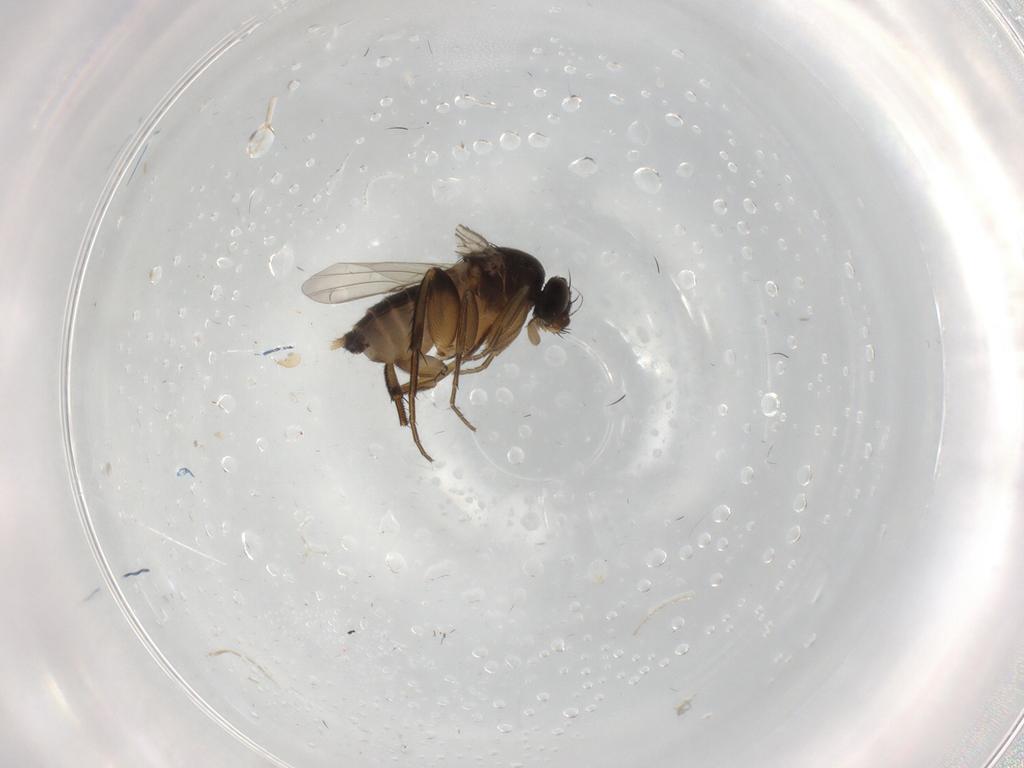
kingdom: Animalia
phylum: Arthropoda
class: Insecta
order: Diptera
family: Phoridae
